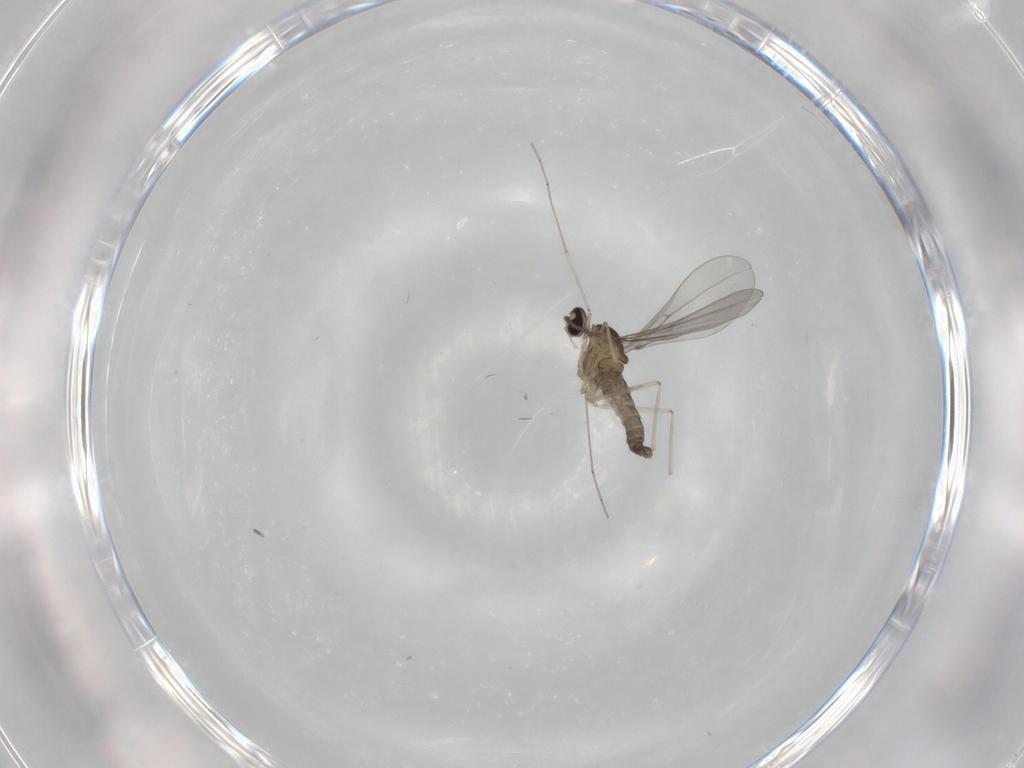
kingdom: Animalia
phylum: Arthropoda
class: Insecta
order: Diptera
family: Cecidomyiidae
